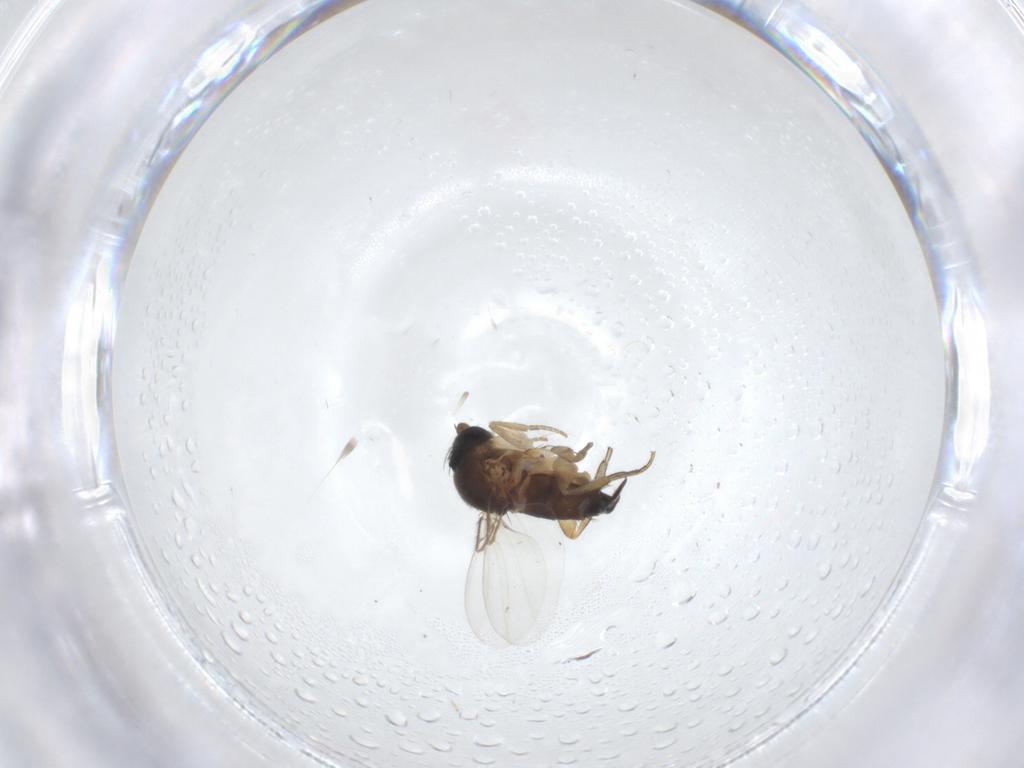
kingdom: Animalia
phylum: Arthropoda
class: Insecta
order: Diptera
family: Phoridae
